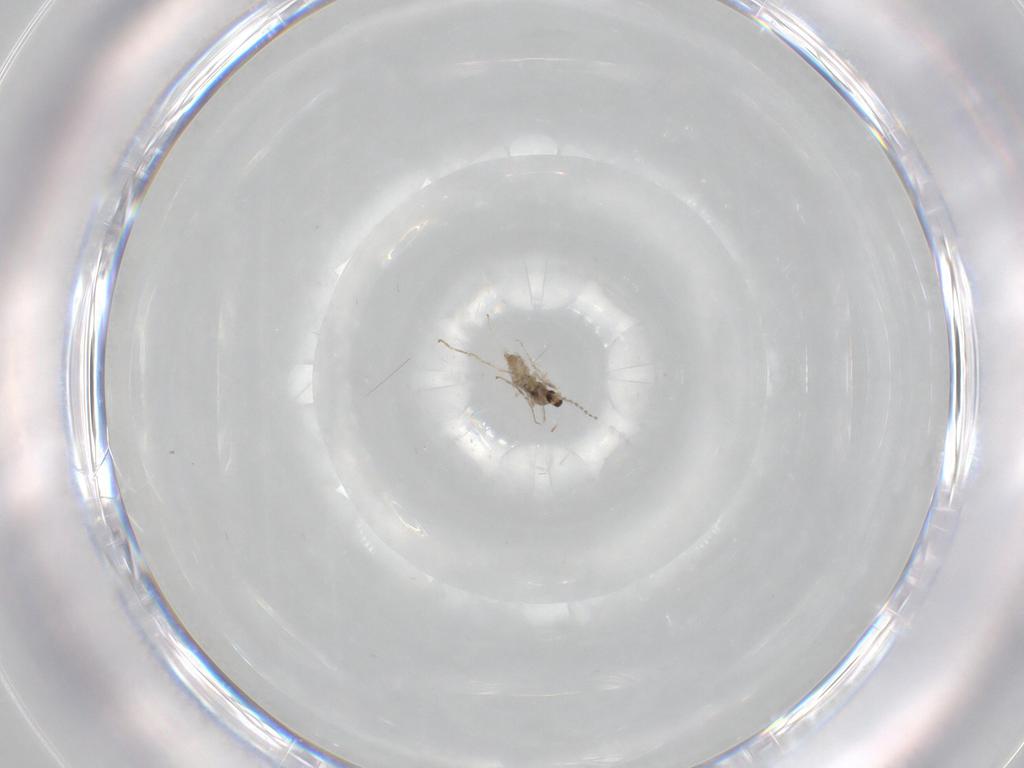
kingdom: Animalia
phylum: Arthropoda
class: Insecta
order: Diptera
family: Cecidomyiidae
